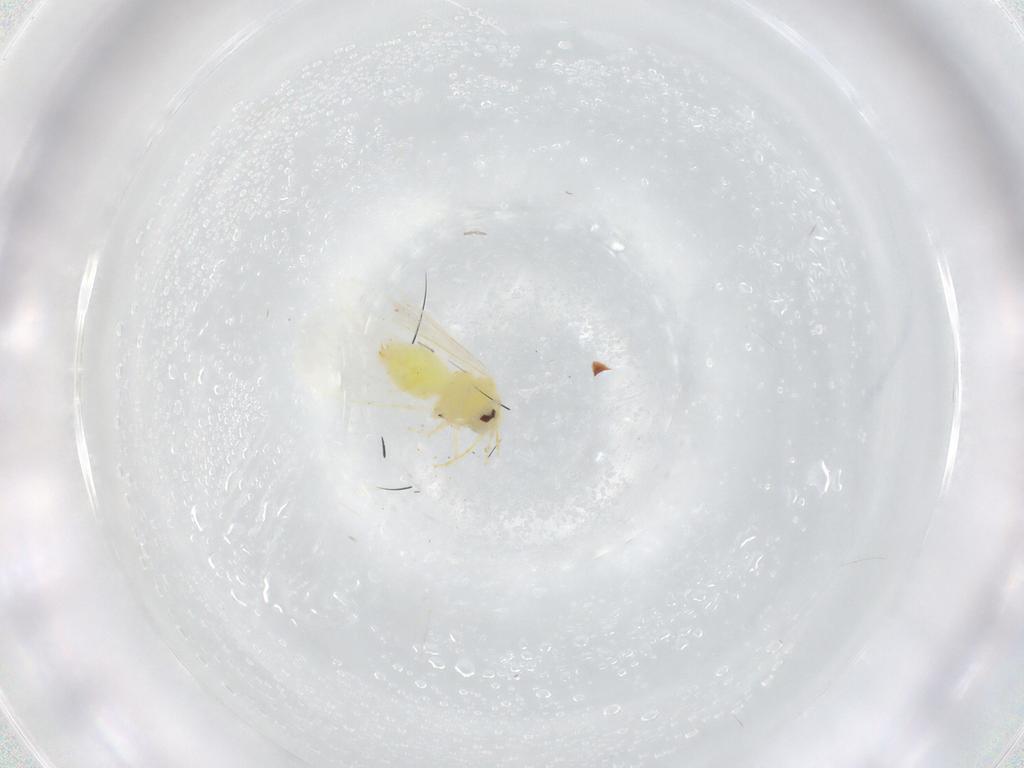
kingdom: Animalia
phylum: Arthropoda
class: Insecta
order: Hemiptera
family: Aleyrodidae
